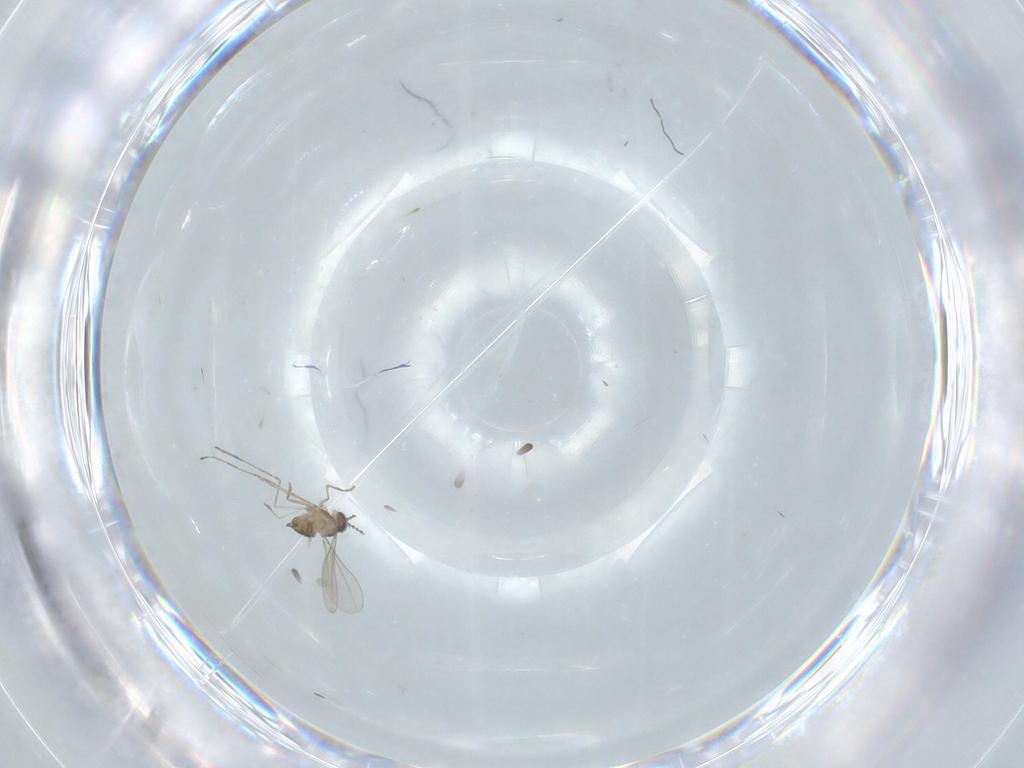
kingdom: Animalia
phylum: Arthropoda
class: Insecta
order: Diptera
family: Cecidomyiidae
